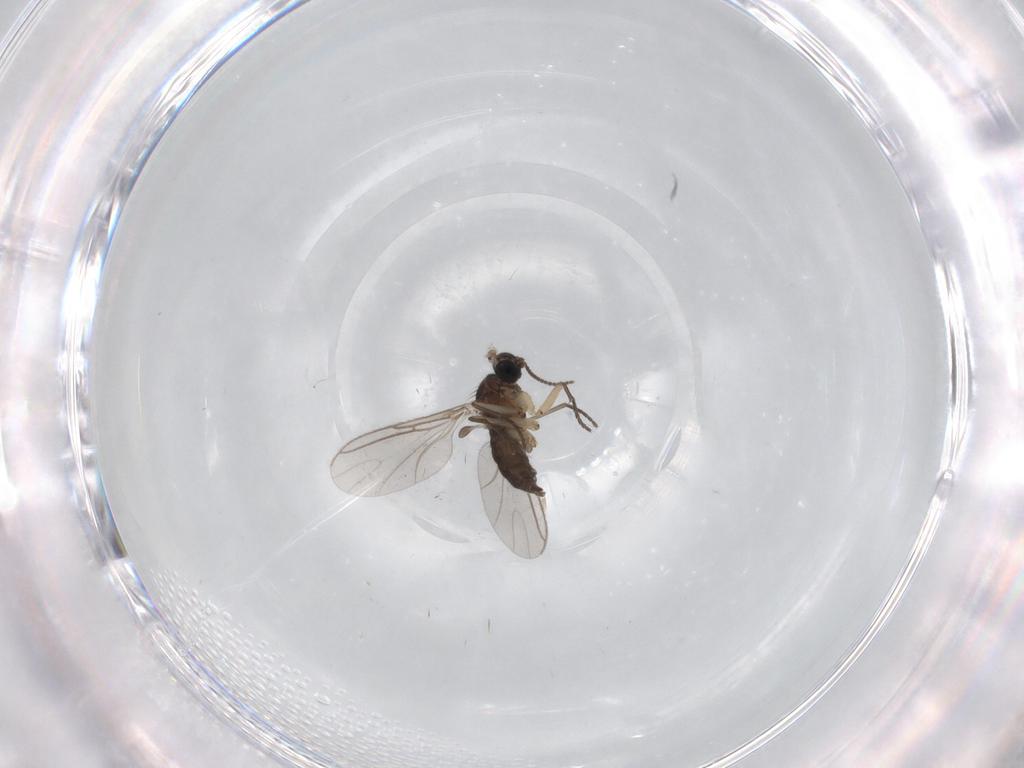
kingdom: Animalia
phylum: Arthropoda
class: Insecta
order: Diptera
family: Sciaridae
